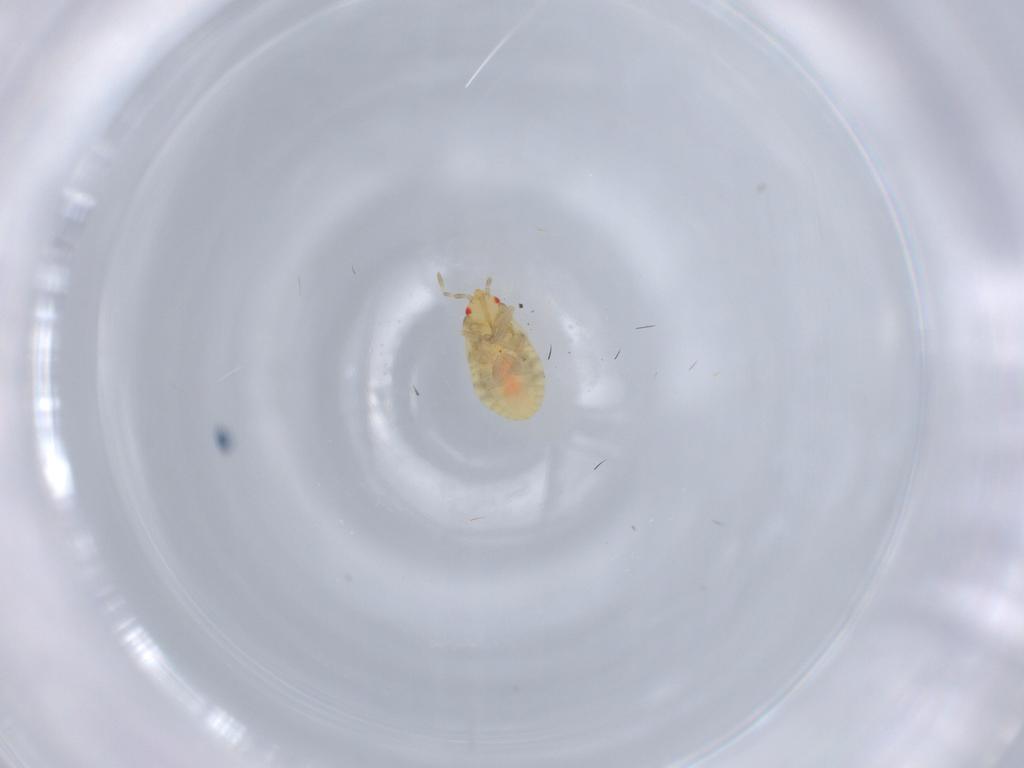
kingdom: Animalia
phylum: Arthropoda
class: Insecta
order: Hemiptera
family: Anthocoridae
